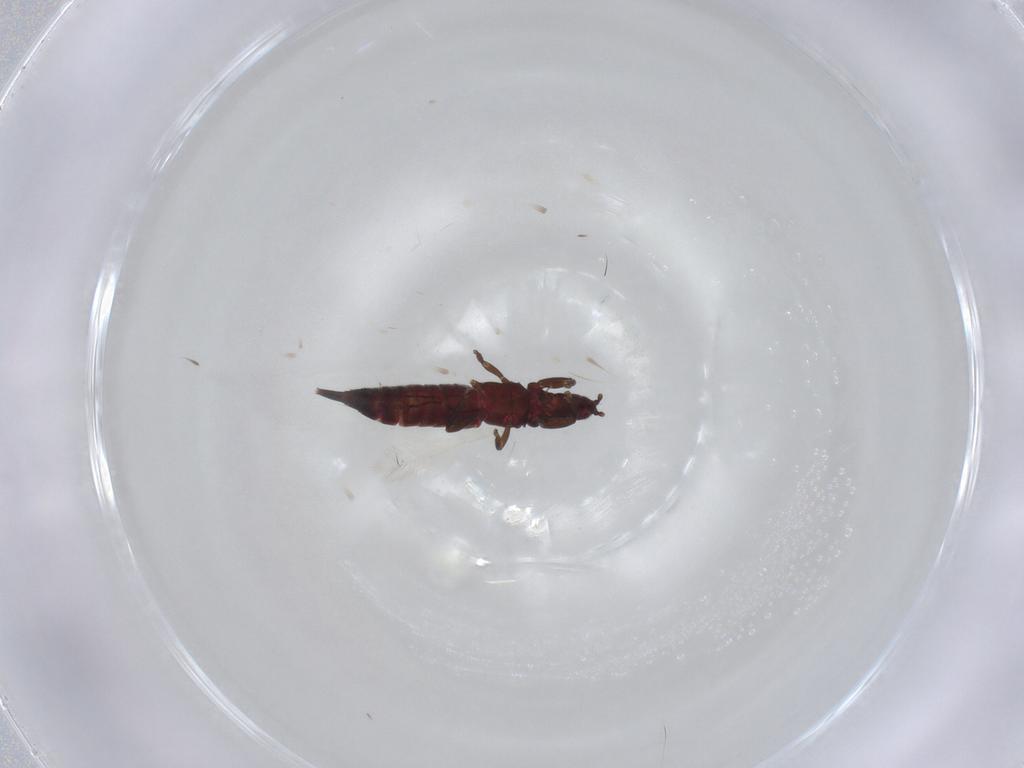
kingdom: Animalia
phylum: Arthropoda
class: Insecta
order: Thysanoptera
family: Phlaeothripidae
